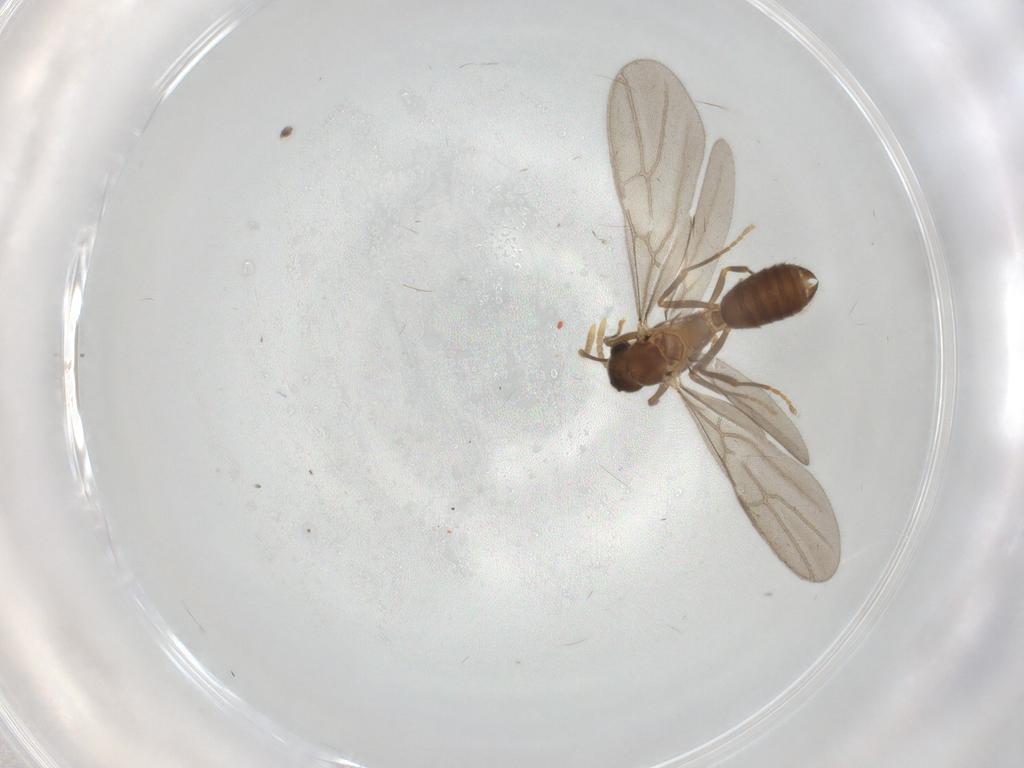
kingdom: Animalia
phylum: Arthropoda
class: Insecta
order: Hymenoptera
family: Formicidae
